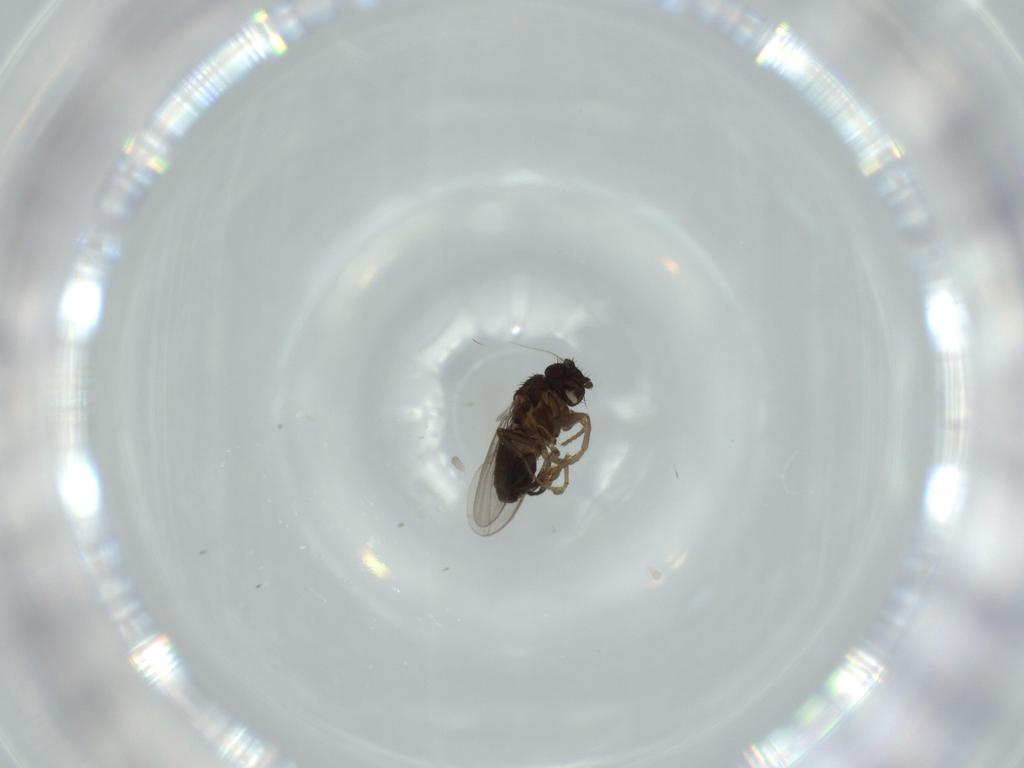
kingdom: Animalia
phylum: Arthropoda
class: Insecta
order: Diptera
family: Sphaeroceridae
